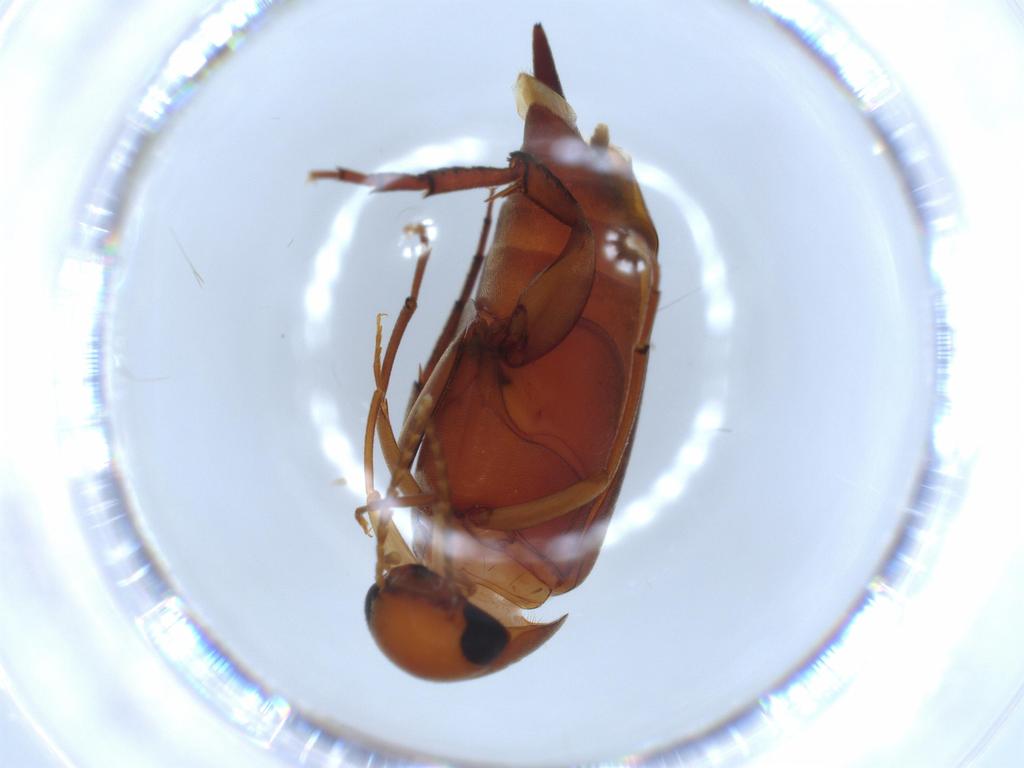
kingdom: Animalia
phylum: Arthropoda
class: Insecta
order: Coleoptera
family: Mordellidae
